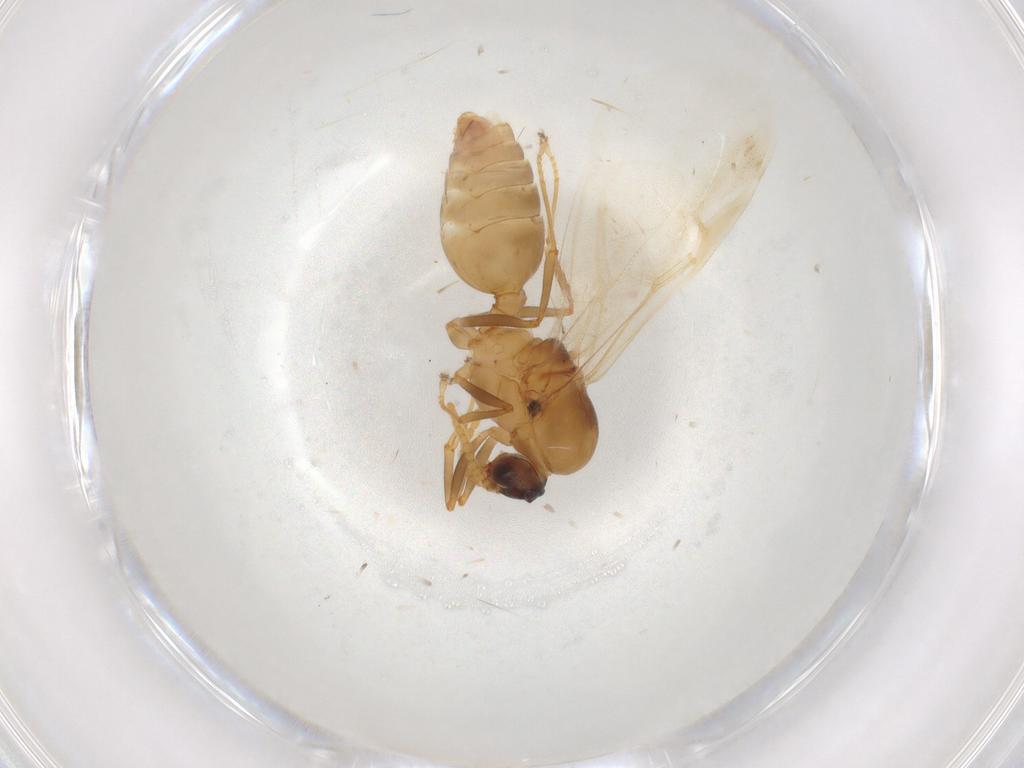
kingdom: Animalia
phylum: Arthropoda
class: Insecta
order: Hymenoptera
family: Formicidae
